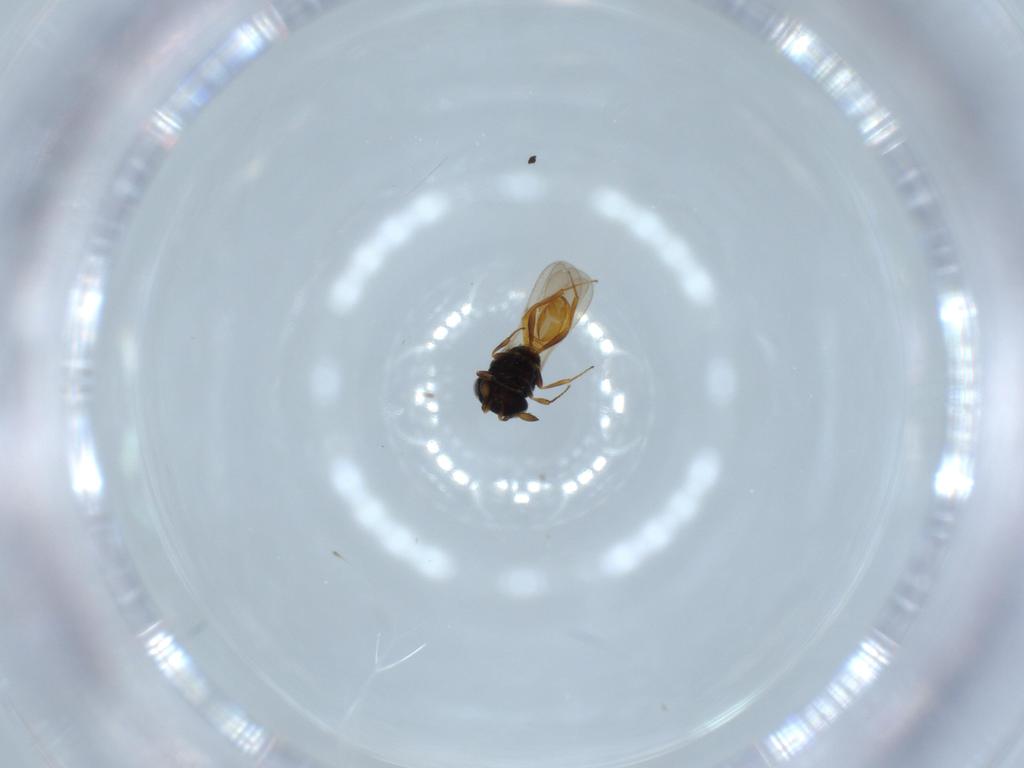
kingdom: Animalia
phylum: Arthropoda
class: Insecta
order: Hymenoptera
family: Scelionidae
